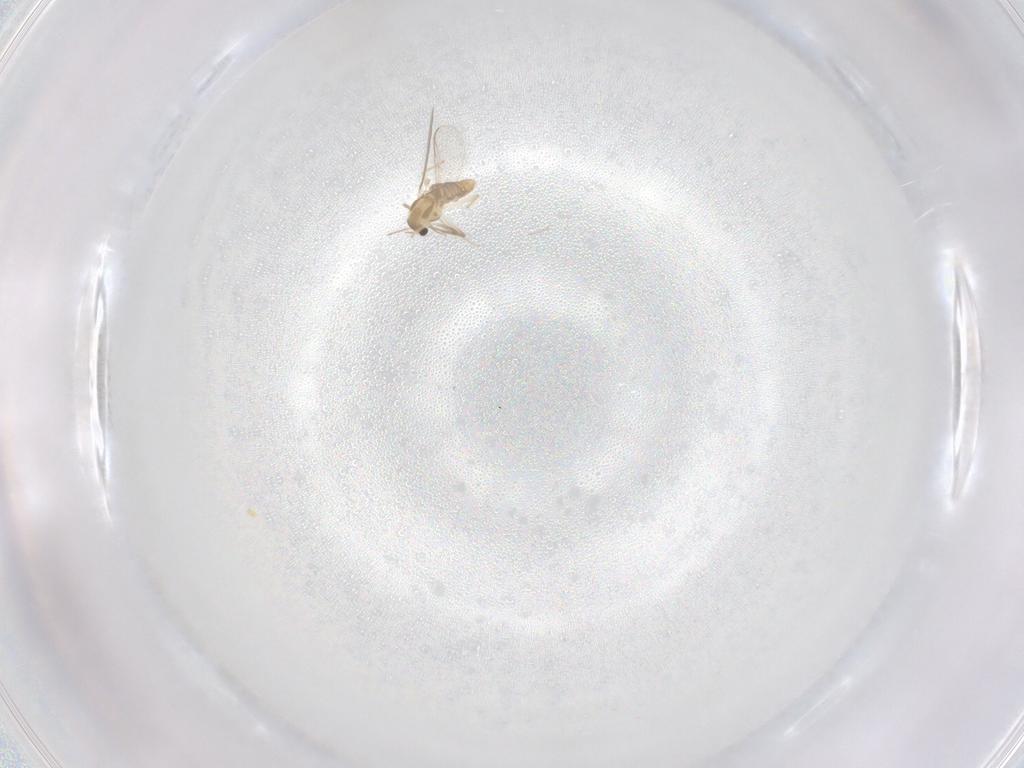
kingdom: Animalia
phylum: Arthropoda
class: Insecta
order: Diptera
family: Chironomidae
